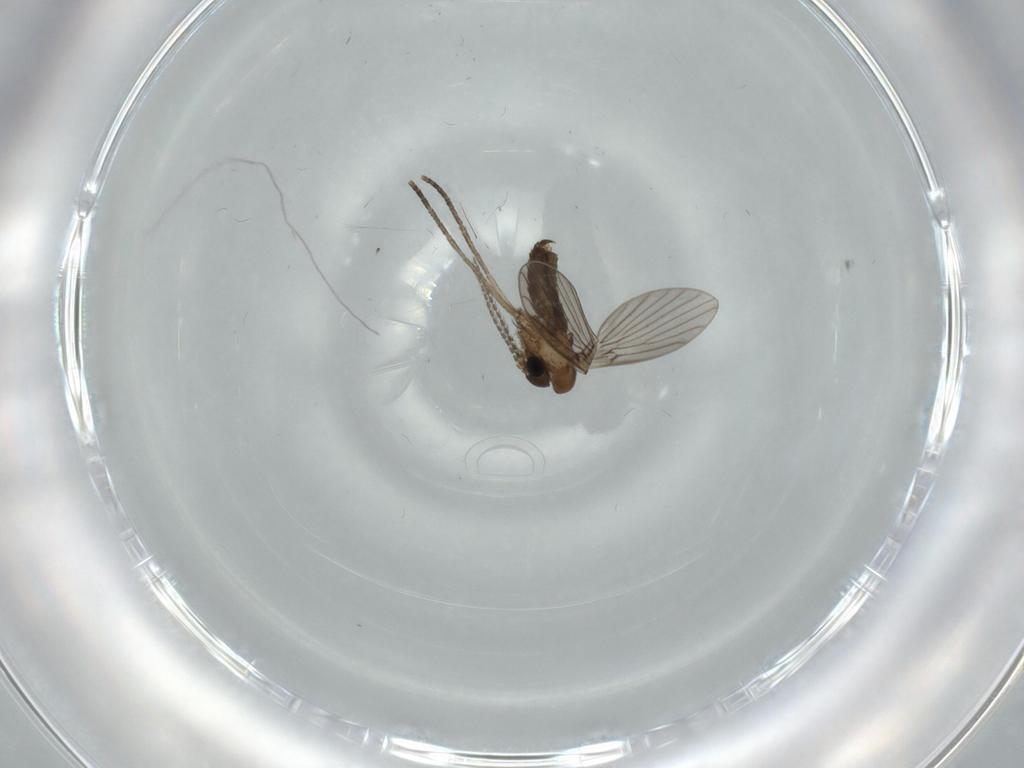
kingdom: Animalia
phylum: Arthropoda
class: Insecta
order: Diptera
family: Psychodidae
